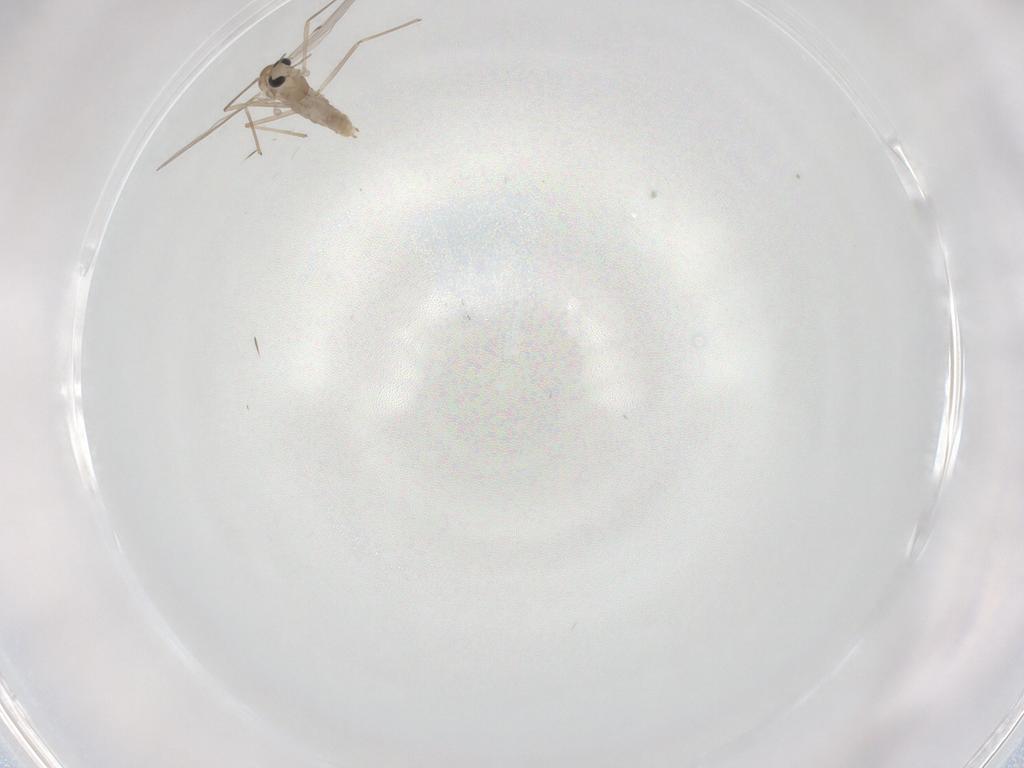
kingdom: Animalia
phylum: Arthropoda
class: Insecta
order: Diptera
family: Chironomidae
